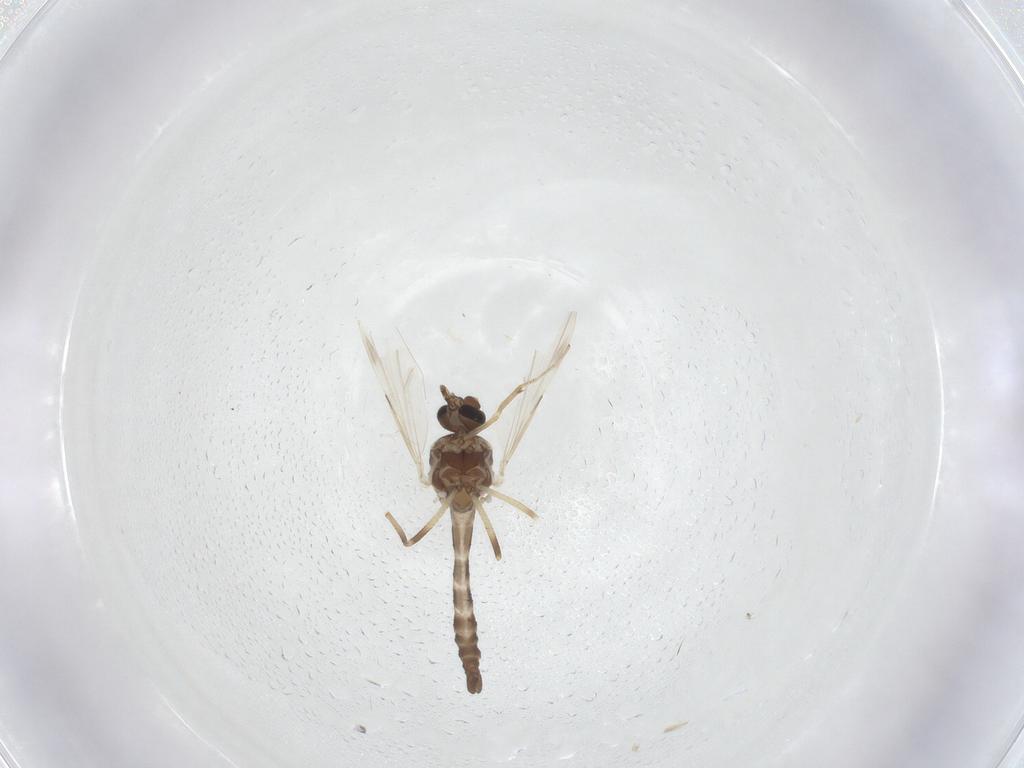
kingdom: Animalia
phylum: Arthropoda
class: Insecta
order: Diptera
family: Ceratopogonidae
